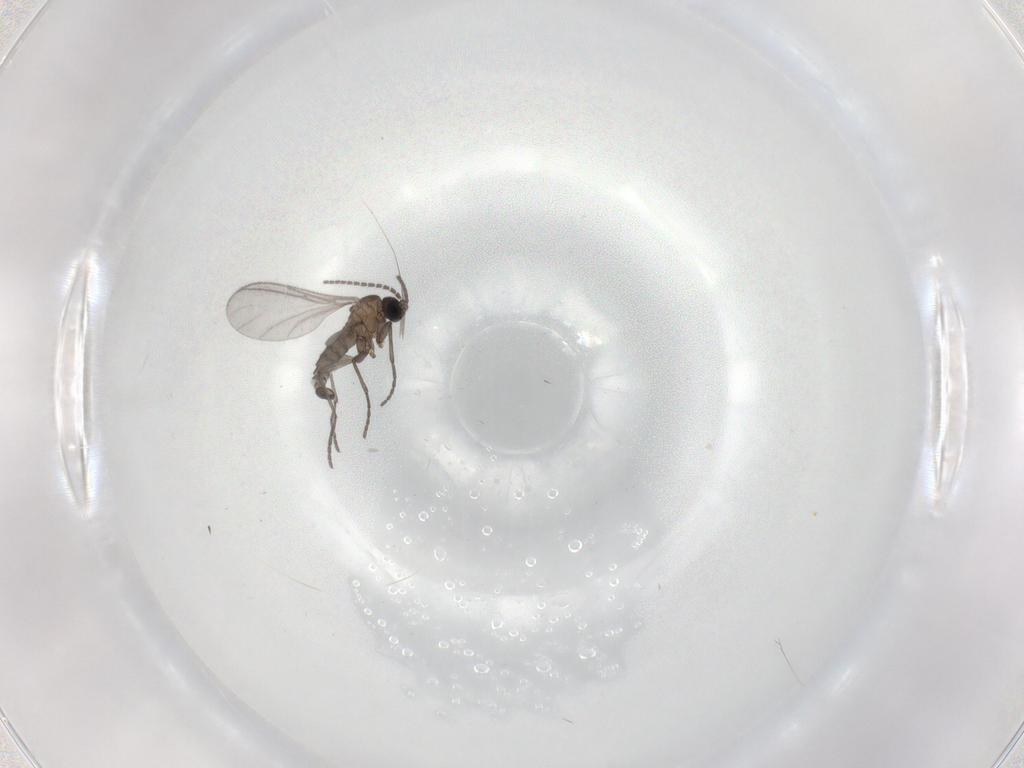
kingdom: Animalia
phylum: Arthropoda
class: Insecta
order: Diptera
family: Sciaridae
